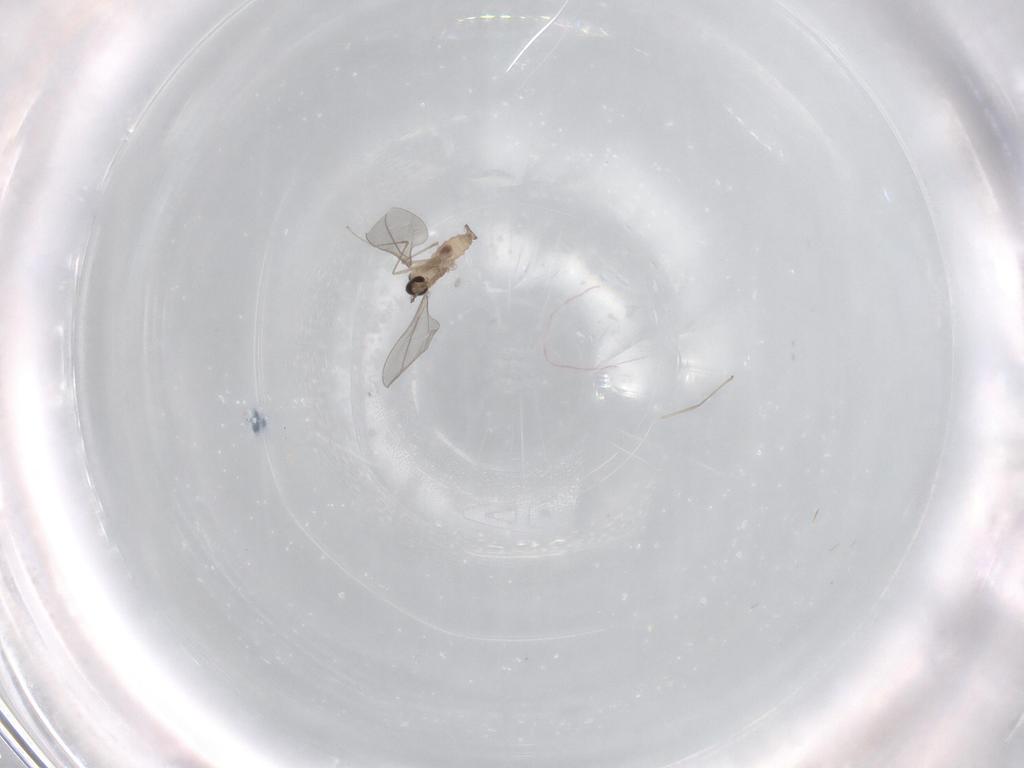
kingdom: Animalia
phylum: Arthropoda
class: Insecta
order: Diptera
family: Cecidomyiidae
